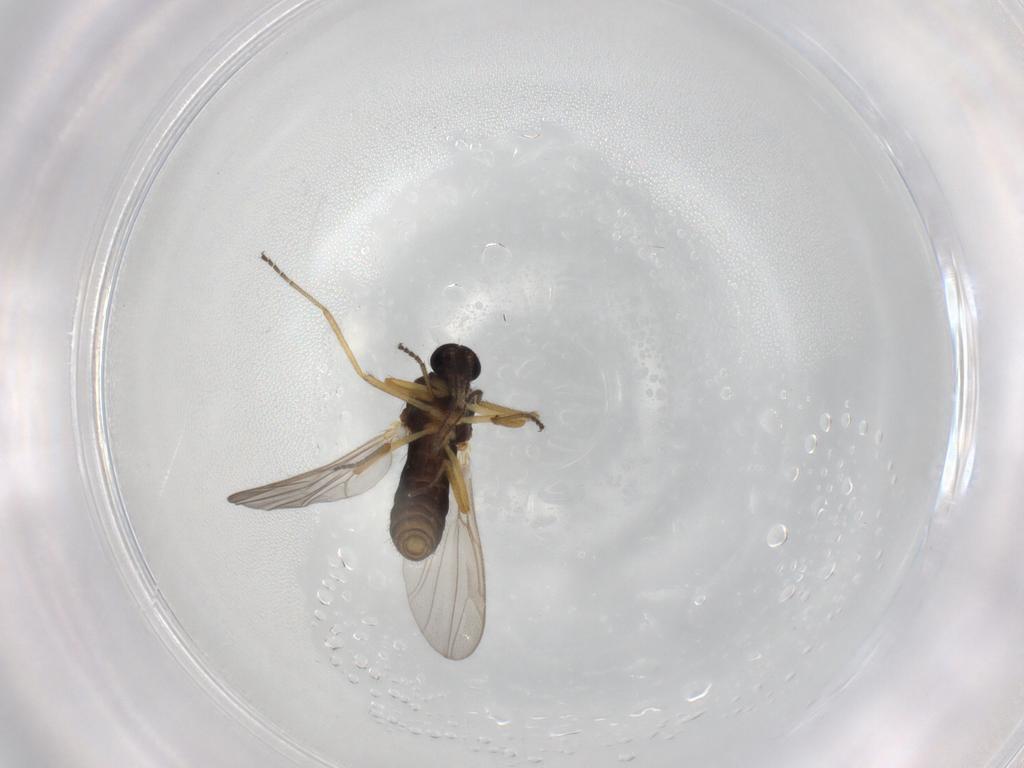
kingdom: Animalia
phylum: Arthropoda
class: Insecta
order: Diptera
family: Ceratopogonidae
